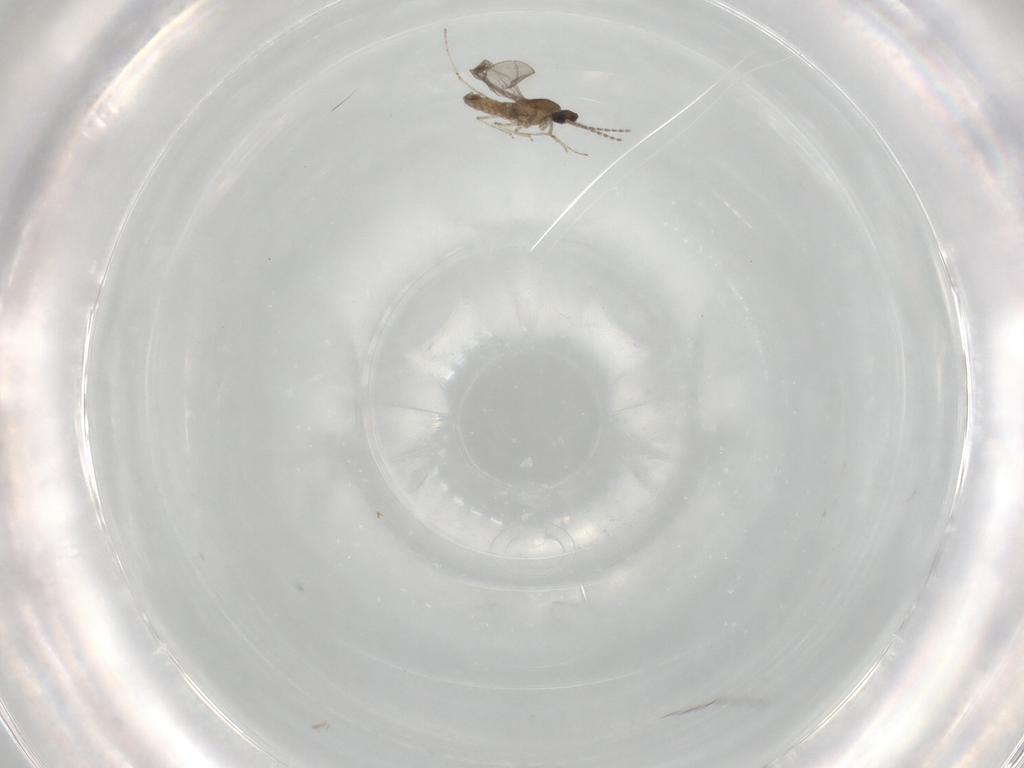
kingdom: Animalia
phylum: Arthropoda
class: Insecta
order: Diptera
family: Cecidomyiidae
